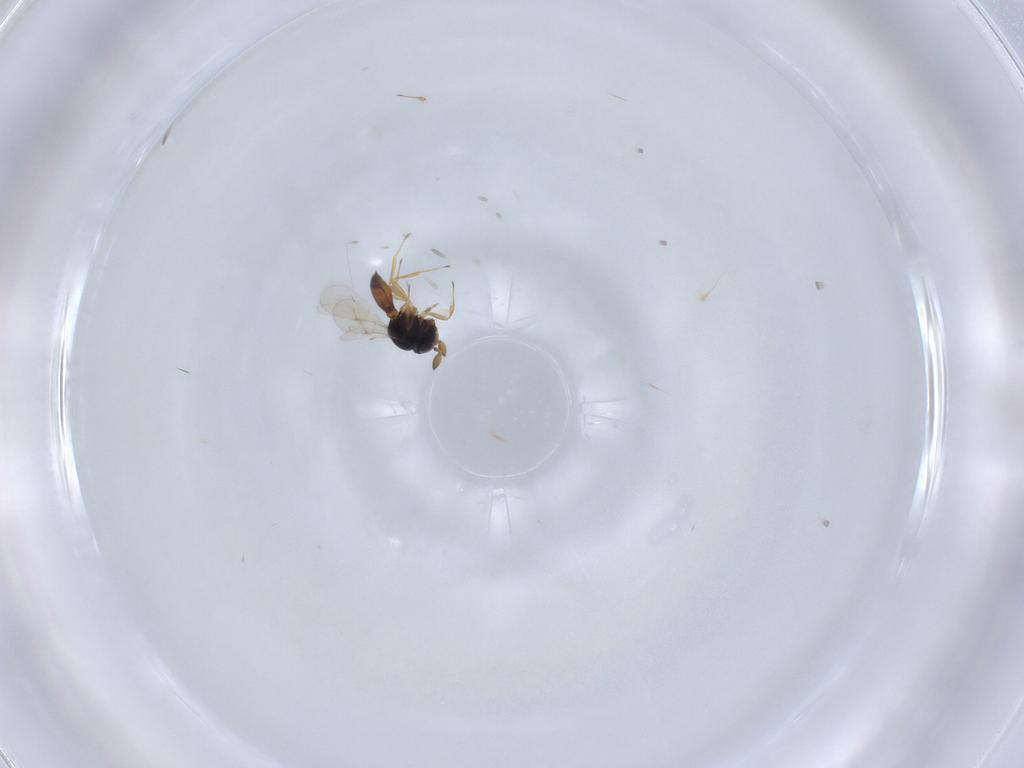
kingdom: Animalia
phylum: Arthropoda
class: Insecta
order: Hymenoptera
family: Scelionidae
